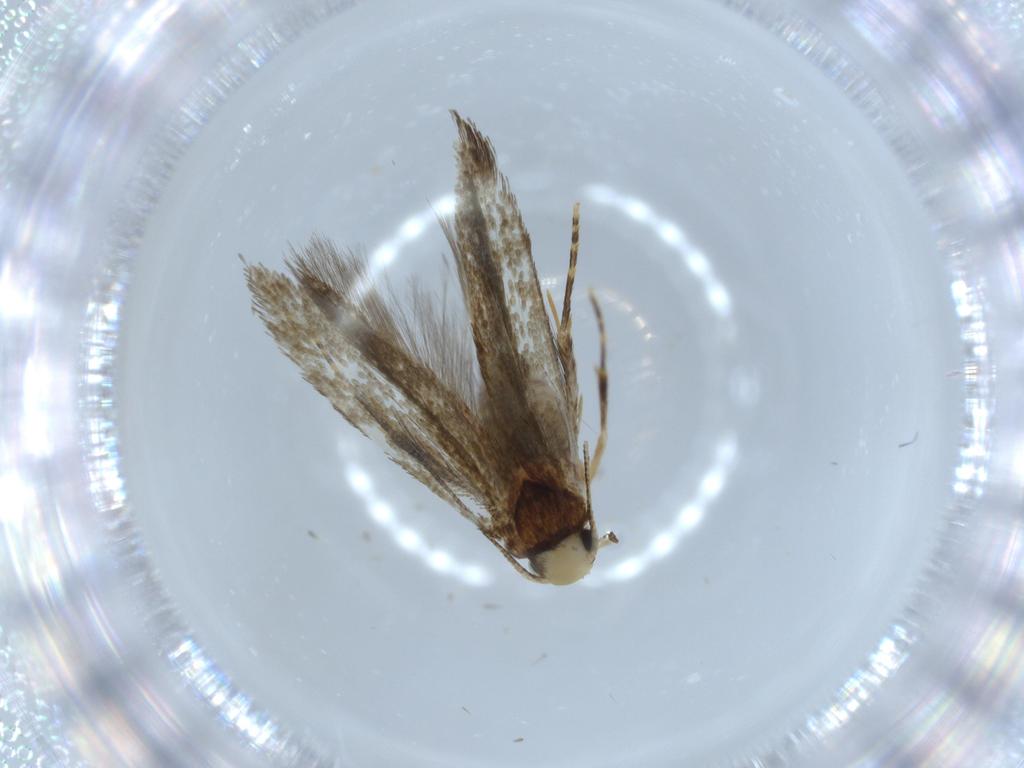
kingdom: Animalia
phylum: Arthropoda
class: Insecta
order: Lepidoptera
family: Tineidae
